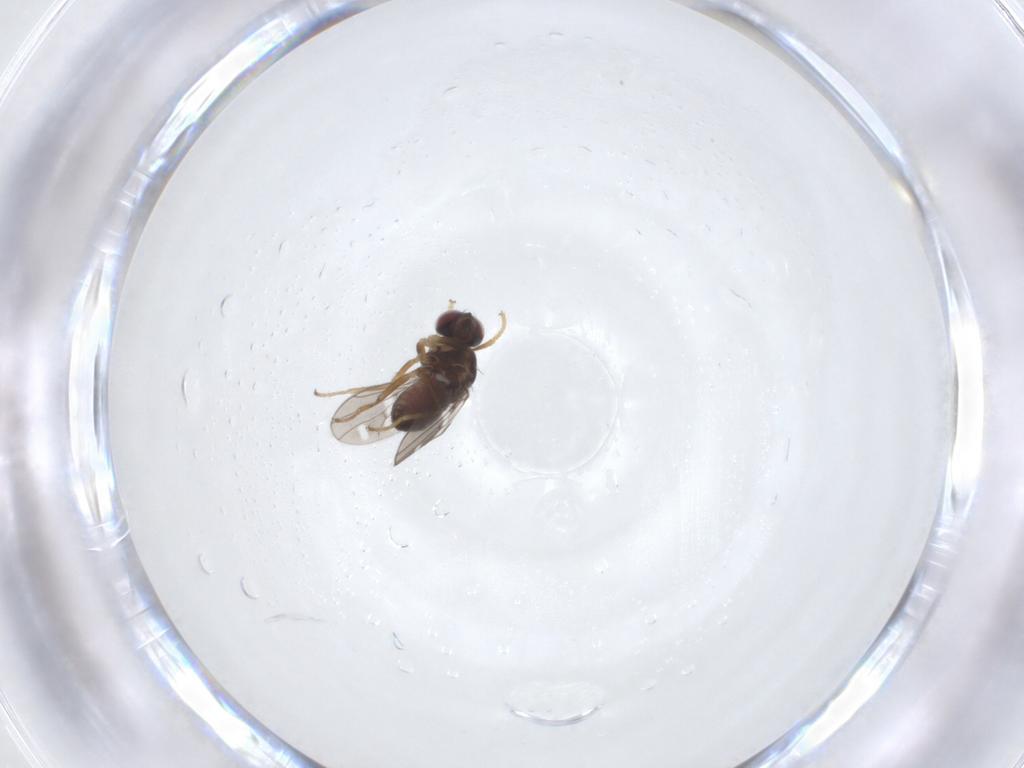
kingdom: Animalia
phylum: Arthropoda
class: Insecta
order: Diptera
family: Ephydridae
